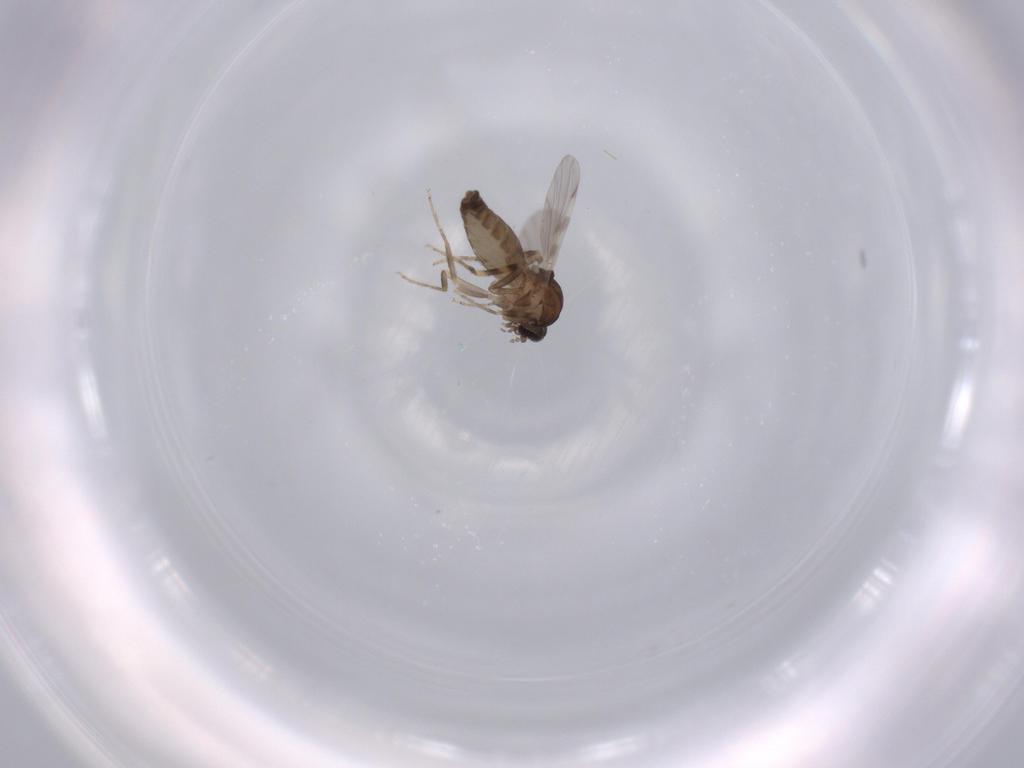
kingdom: Animalia
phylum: Arthropoda
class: Insecta
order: Diptera
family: Ceratopogonidae
